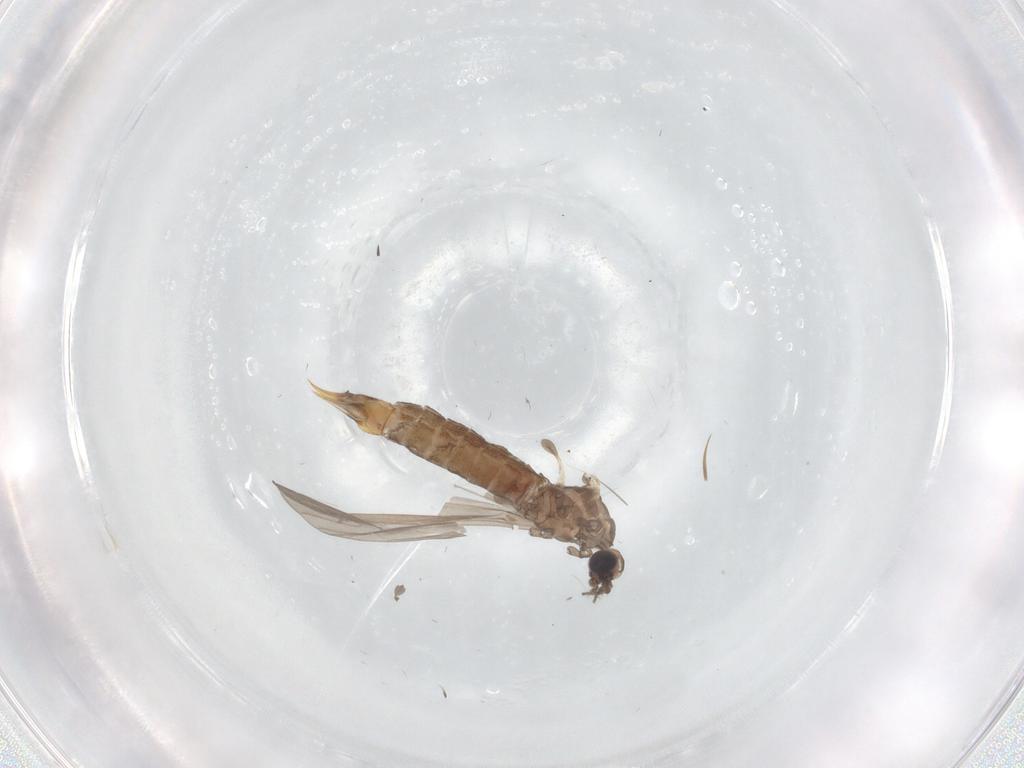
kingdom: Animalia
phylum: Arthropoda
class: Insecta
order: Diptera
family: Limoniidae
